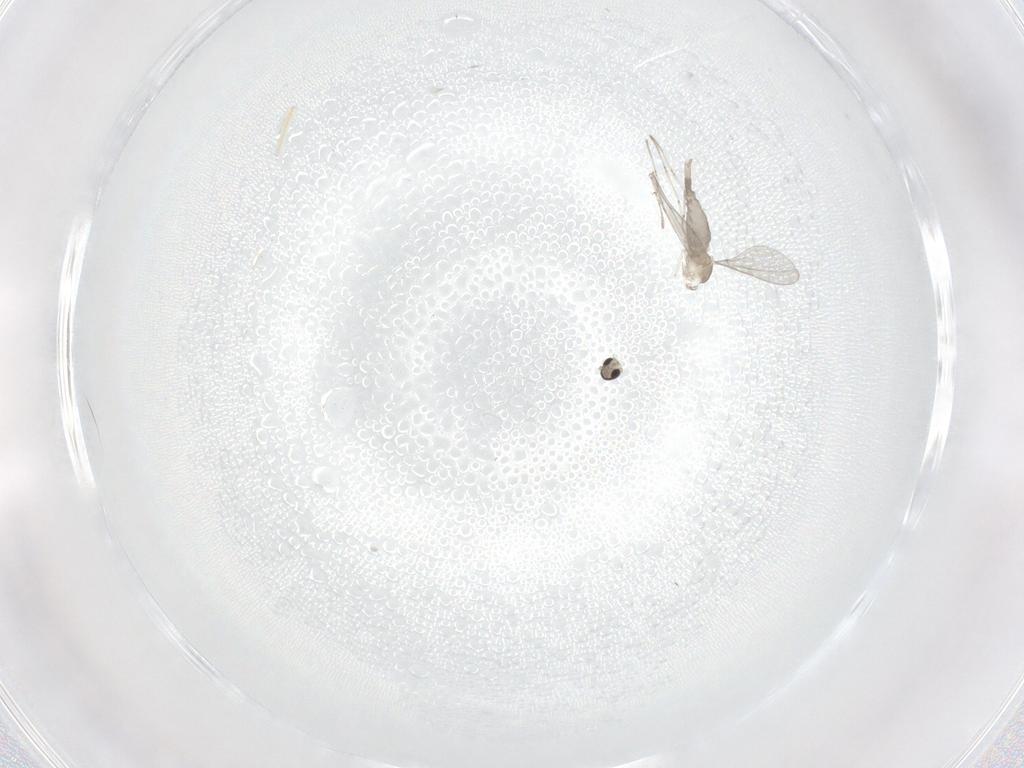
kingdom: Animalia
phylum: Arthropoda
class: Insecta
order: Diptera
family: Cecidomyiidae
